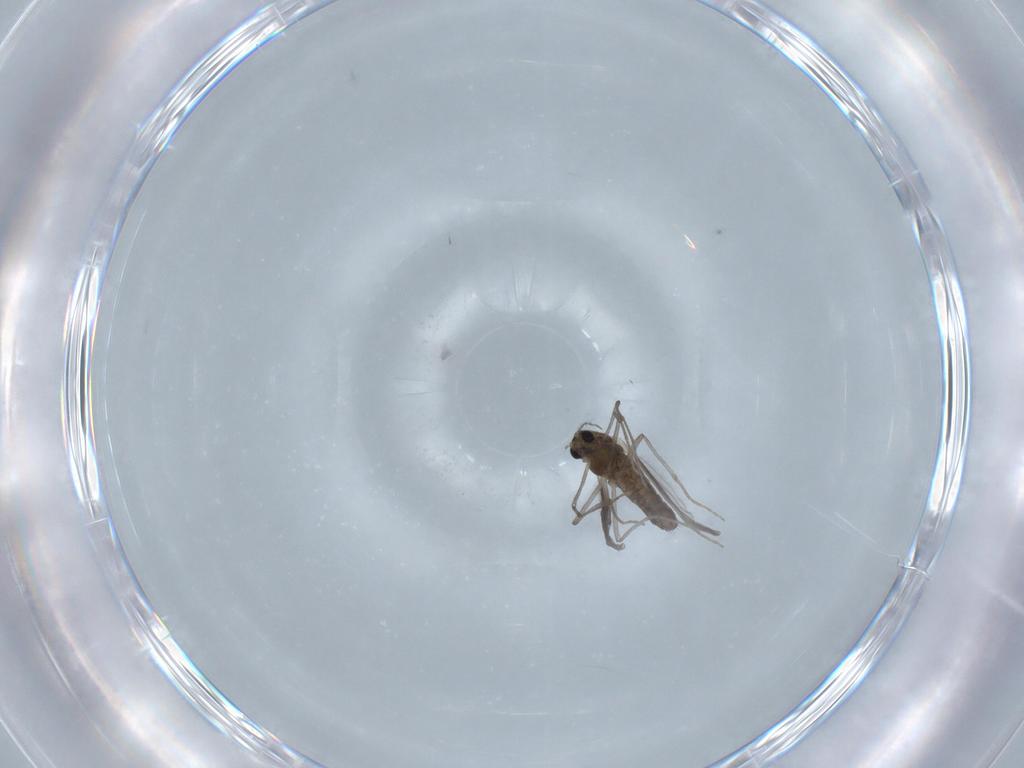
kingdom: Animalia
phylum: Arthropoda
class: Insecta
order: Diptera
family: Chironomidae
